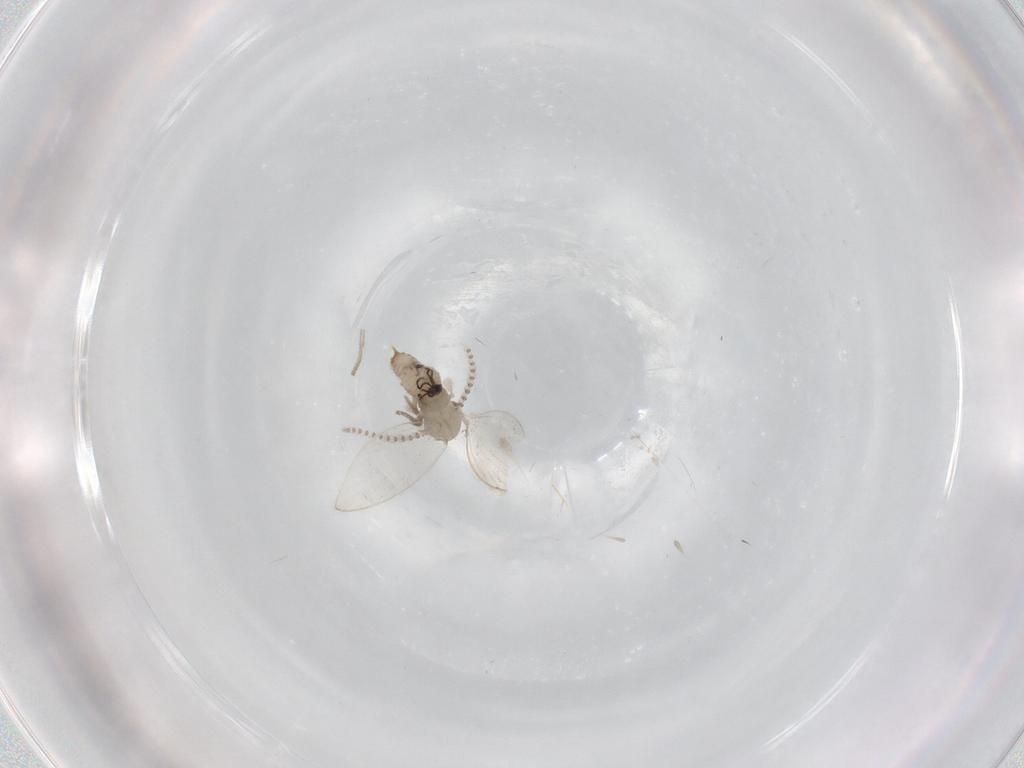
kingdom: Animalia
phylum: Arthropoda
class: Insecta
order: Diptera
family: Psychodidae
